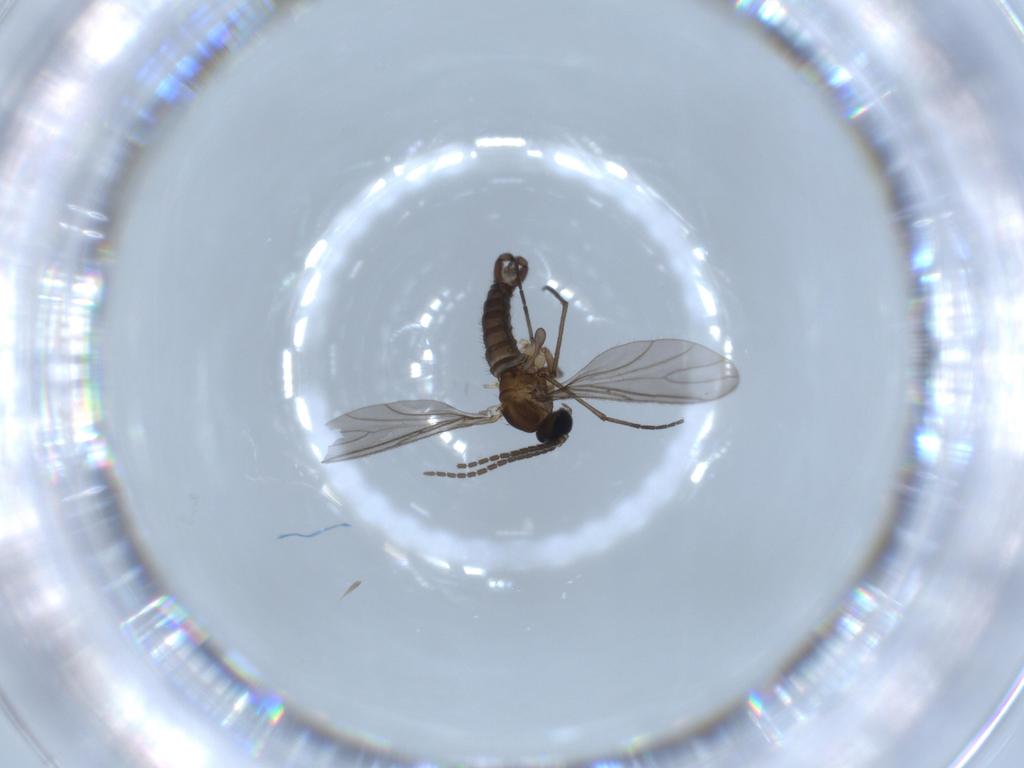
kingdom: Animalia
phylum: Arthropoda
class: Insecta
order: Diptera
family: Sciaridae
